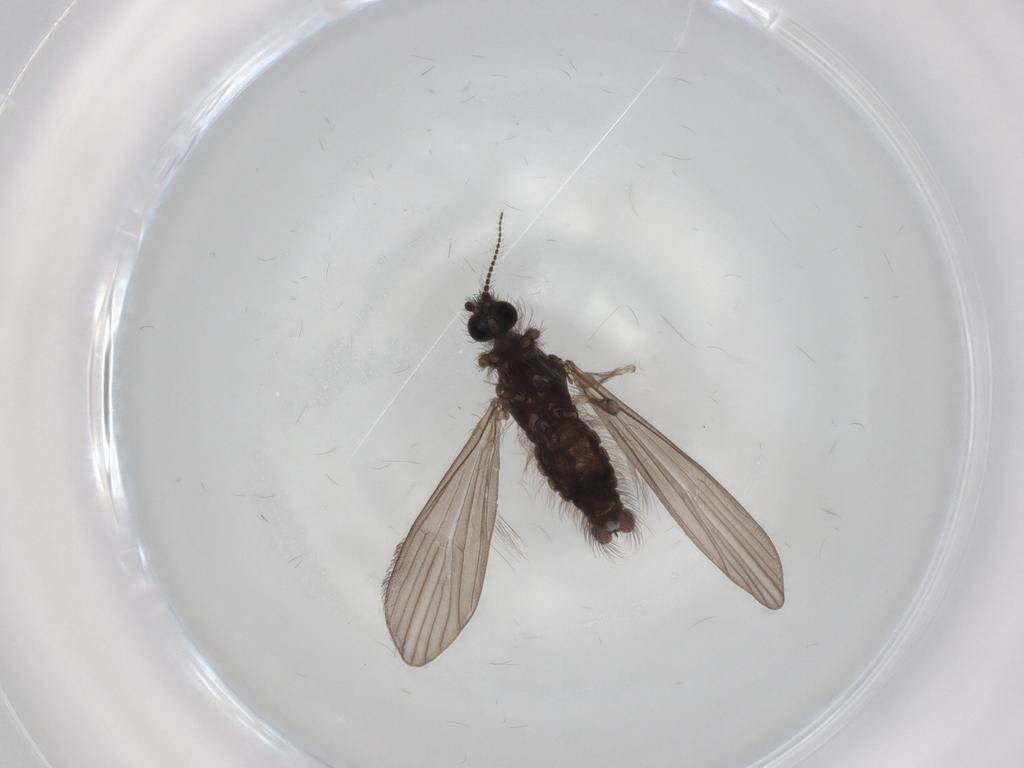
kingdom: Animalia
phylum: Arthropoda
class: Insecta
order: Diptera
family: Limoniidae
